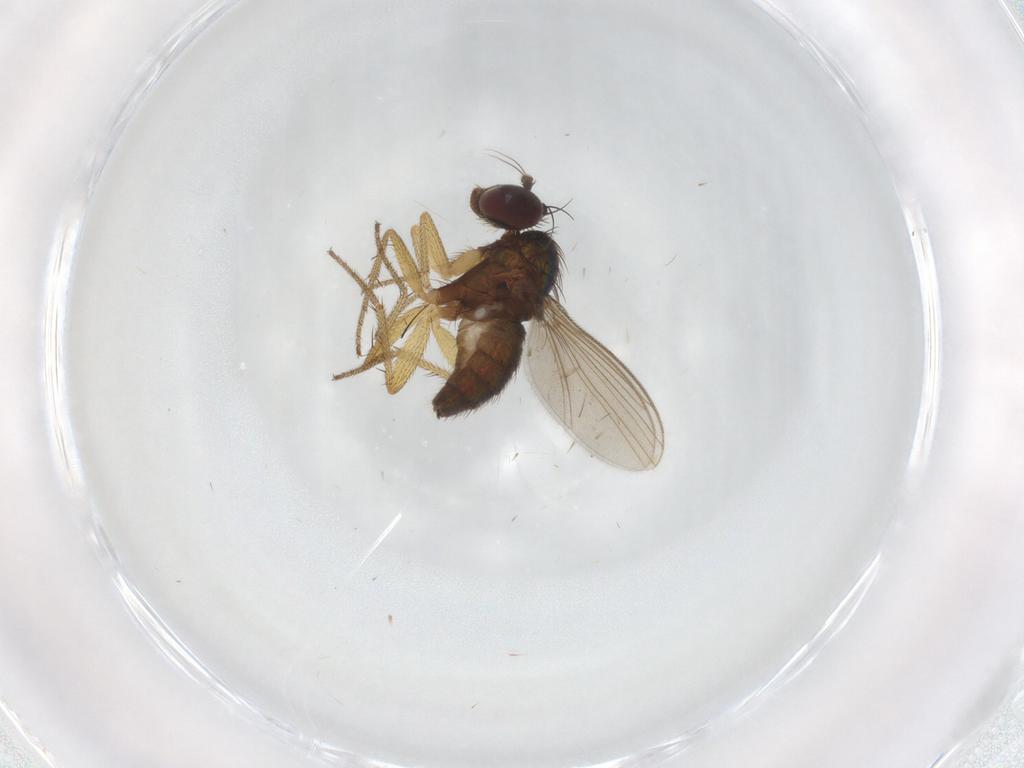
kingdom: Animalia
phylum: Arthropoda
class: Insecta
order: Diptera
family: Dolichopodidae
